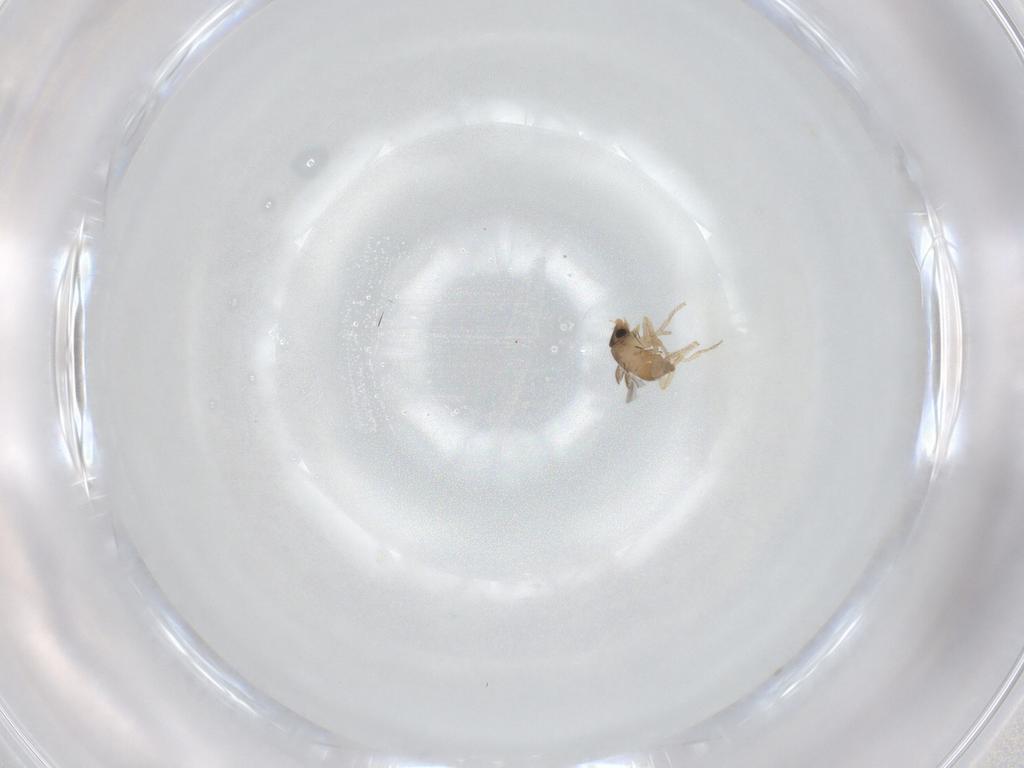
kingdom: Animalia
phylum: Arthropoda
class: Insecta
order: Diptera
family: Phoridae
